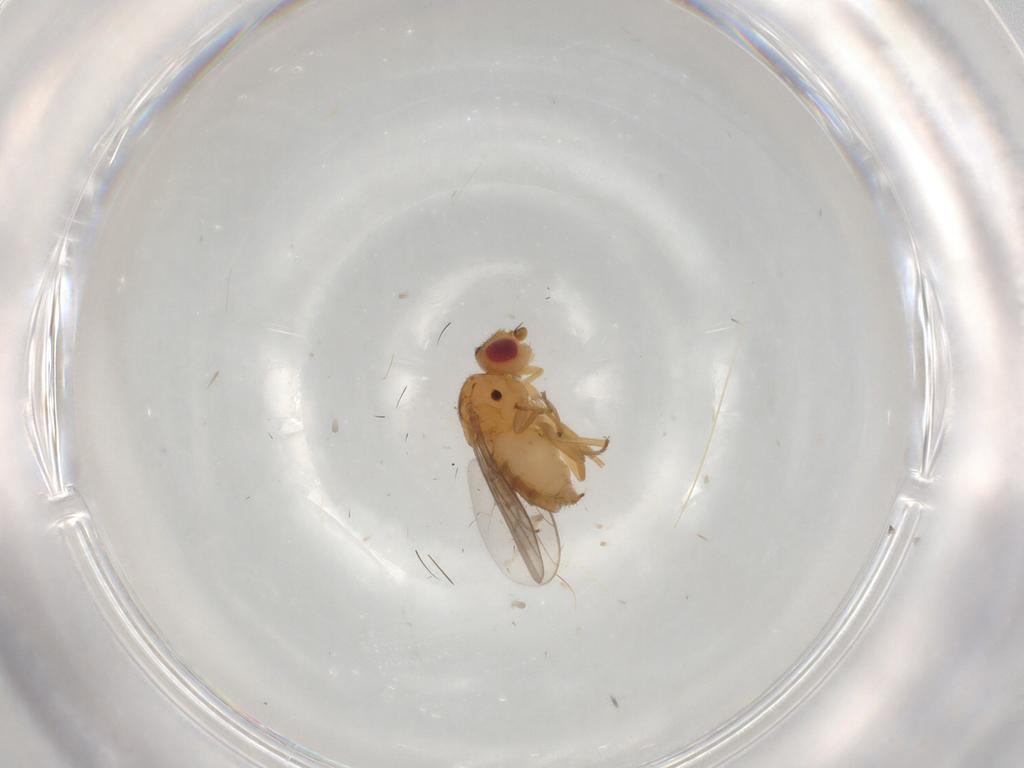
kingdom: Animalia
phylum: Arthropoda
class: Insecta
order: Diptera
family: Chloropidae
